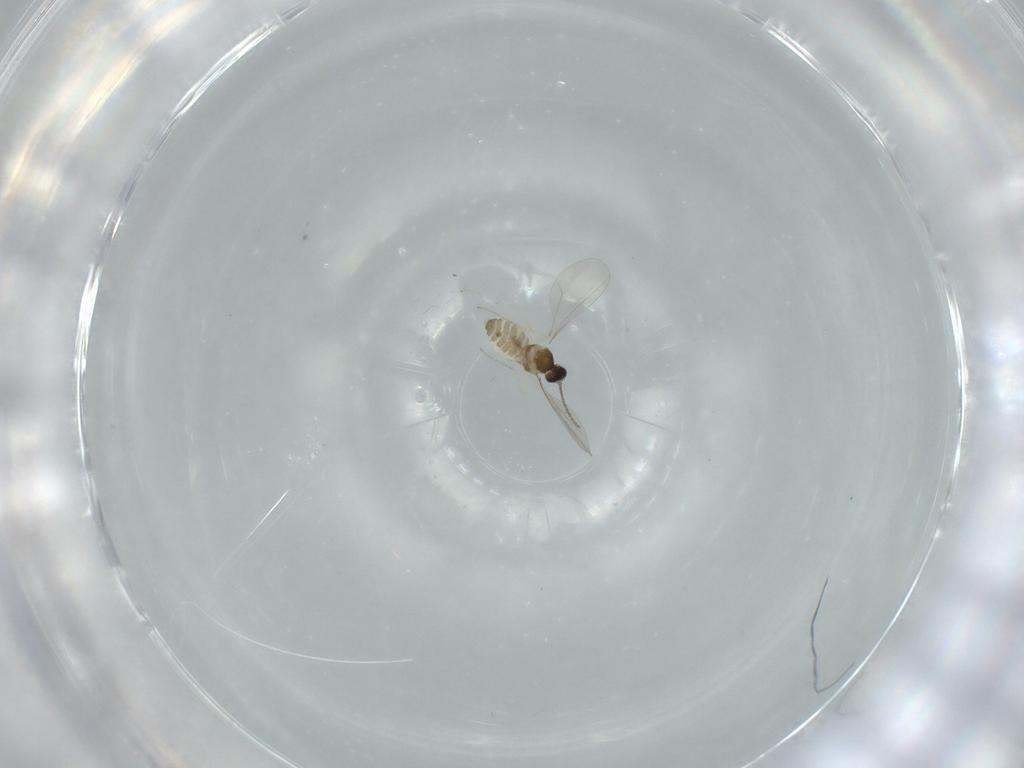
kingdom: Animalia
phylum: Arthropoda
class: Insecta
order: Diptera
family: Cecidomyiidae
